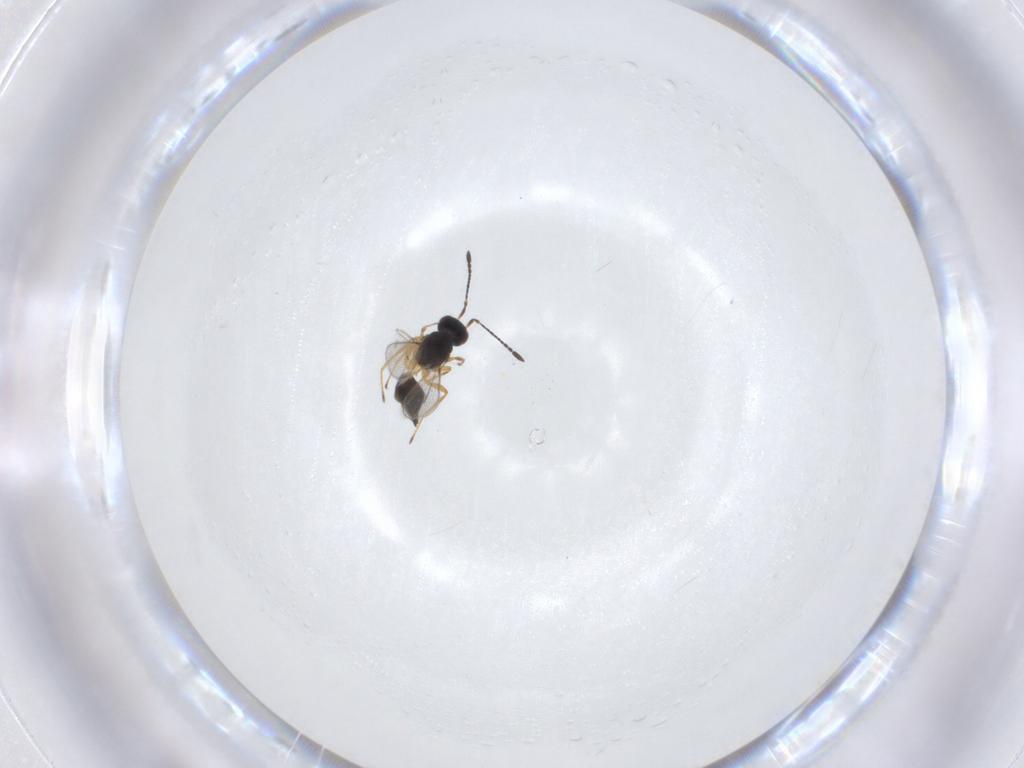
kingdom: Animalia
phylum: Arthropoda
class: Insecta
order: Hymenoptera
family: Mymaridae
